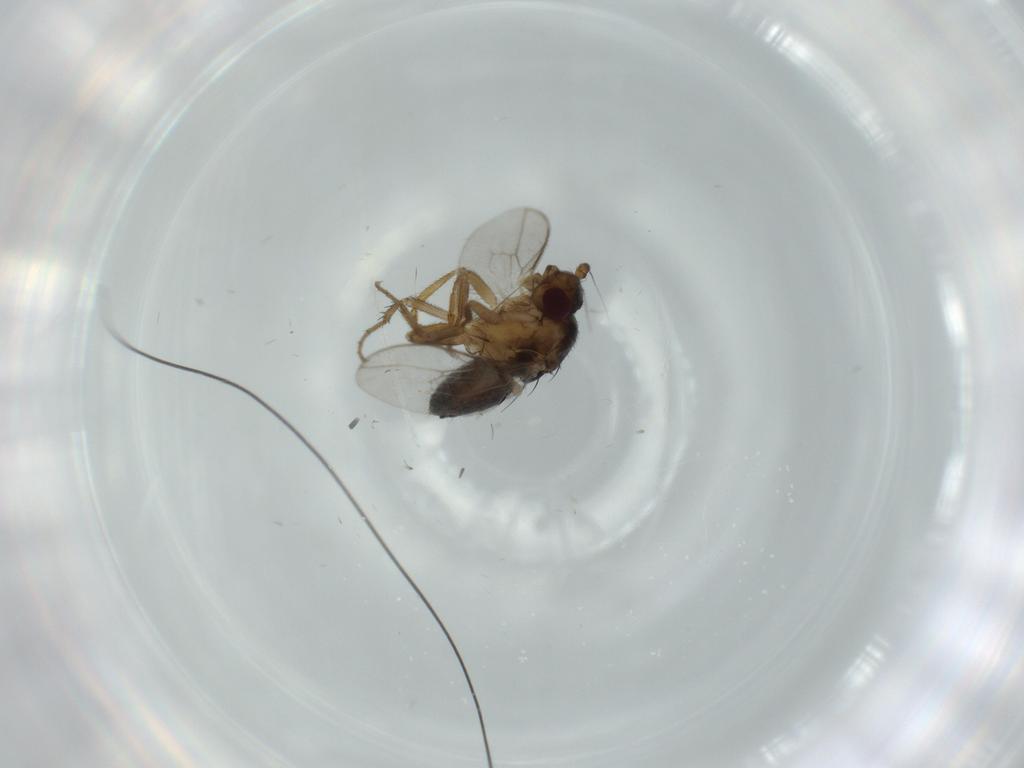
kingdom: Animalia
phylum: Arthropoda
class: Insecta
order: Diptera
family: Sphaeroceridae
